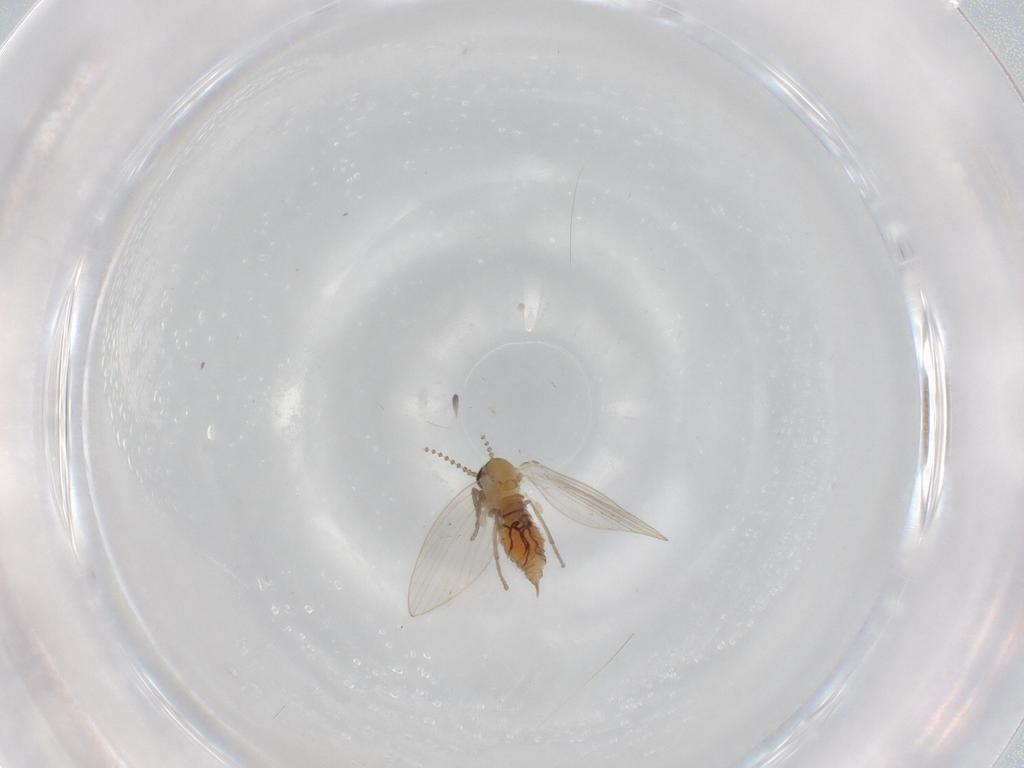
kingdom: Animalia
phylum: Arthropoda
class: Insecta
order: Diptera
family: Psychodidae
